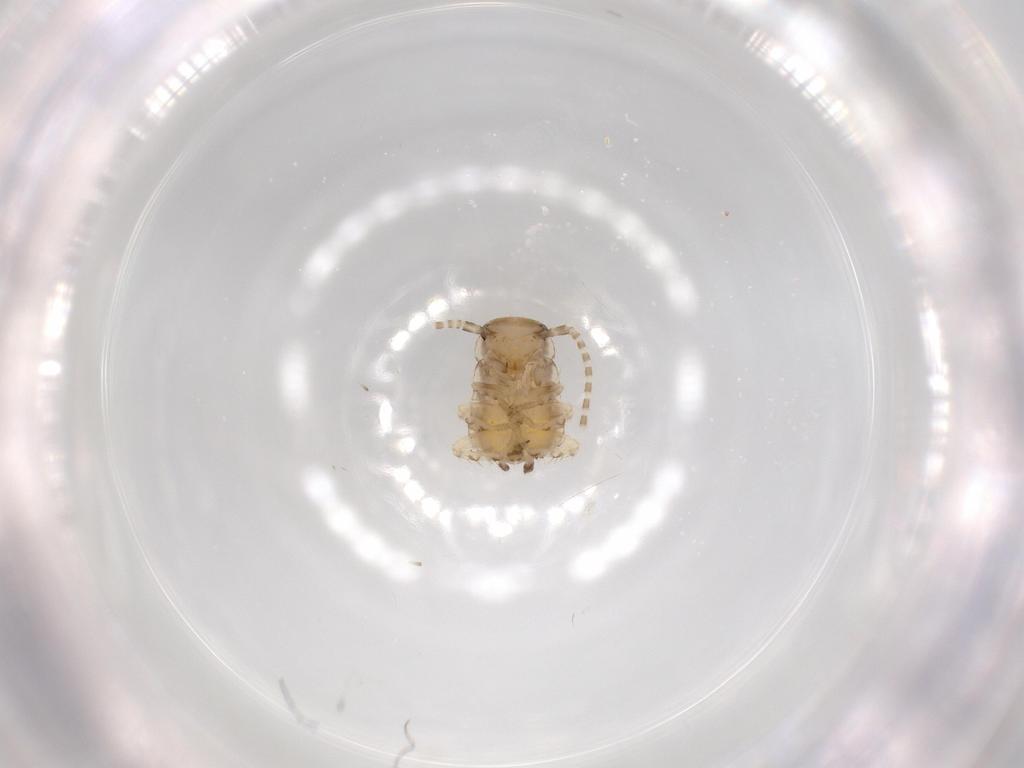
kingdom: Animalia
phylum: Arthropoda
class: Insecta
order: Blattodea
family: Ectobiidae
